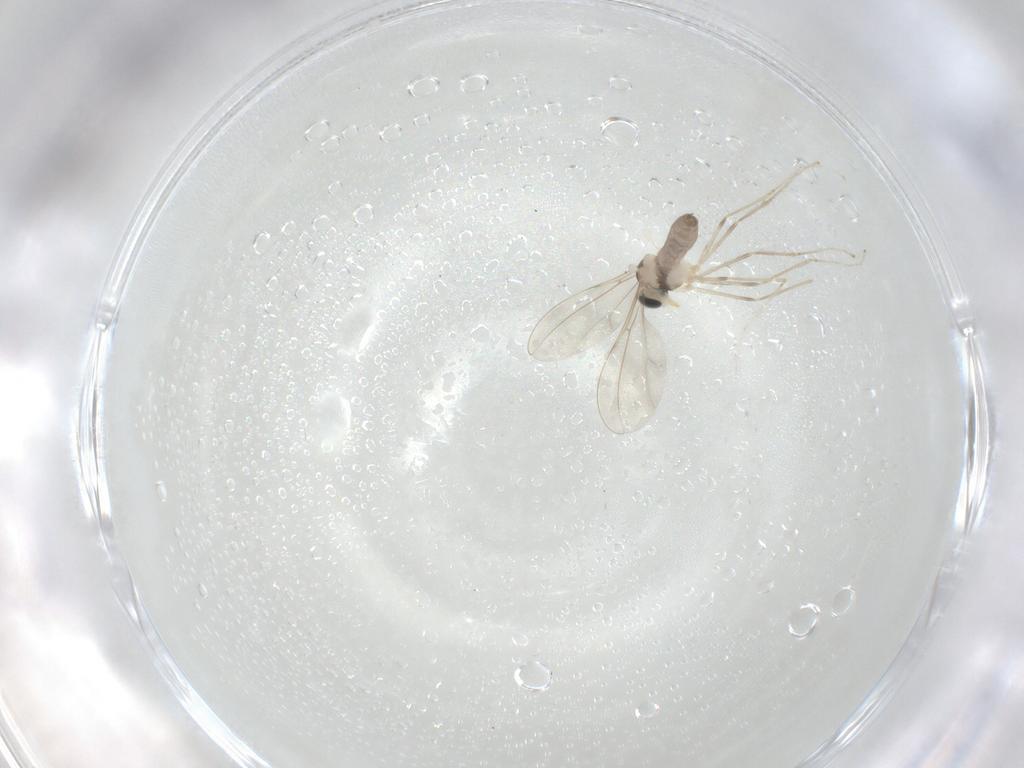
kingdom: Animalia
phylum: Arthropoda
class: Insecta
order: Diptera
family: Cecidomyiidae
